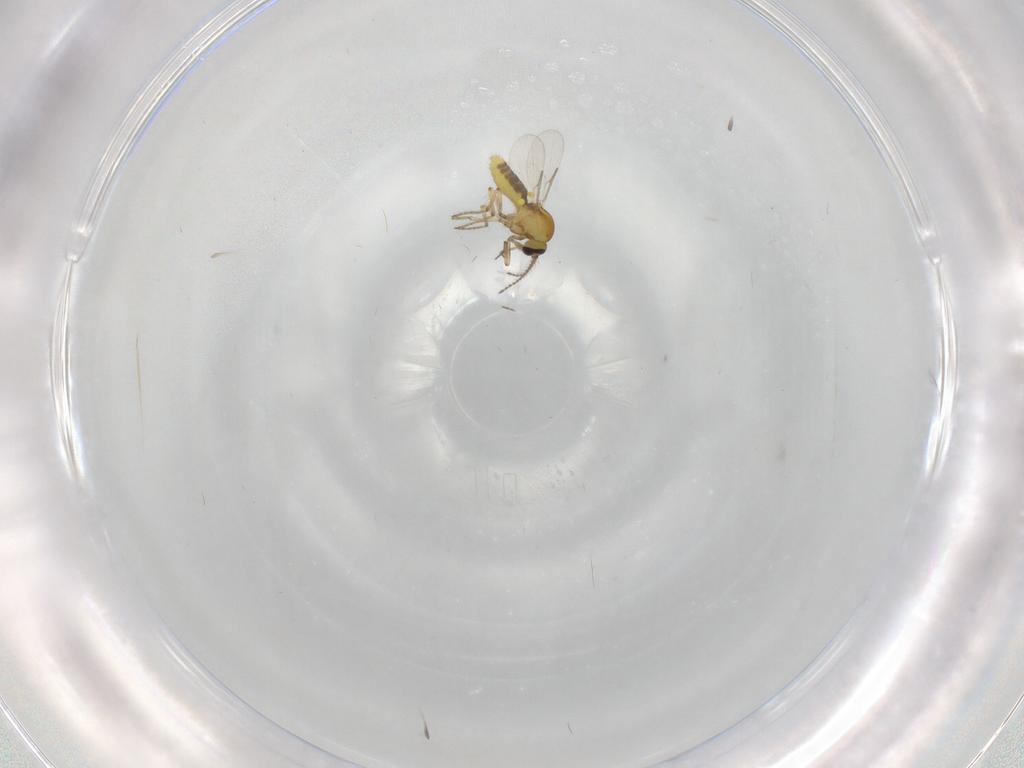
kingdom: Animalia
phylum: Arthropoda
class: Insecta
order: Diptera
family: Ceratopogonidae
